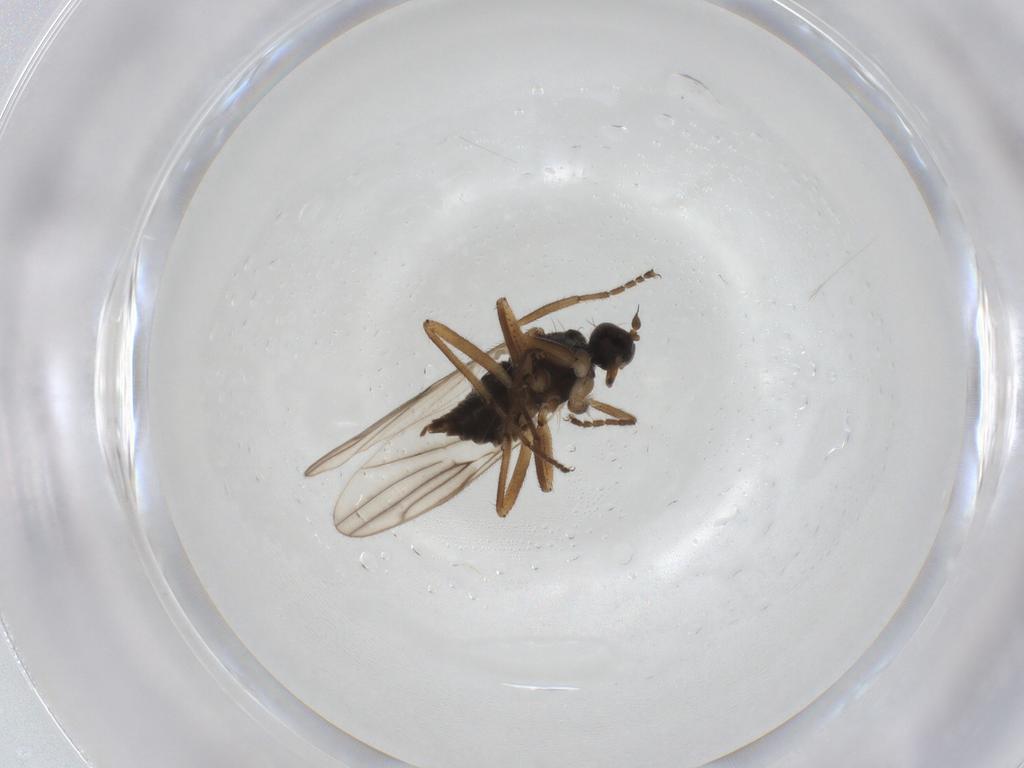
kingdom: Animalia
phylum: Arthropoda
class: Insecta
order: Diptera
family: Hybotidae
